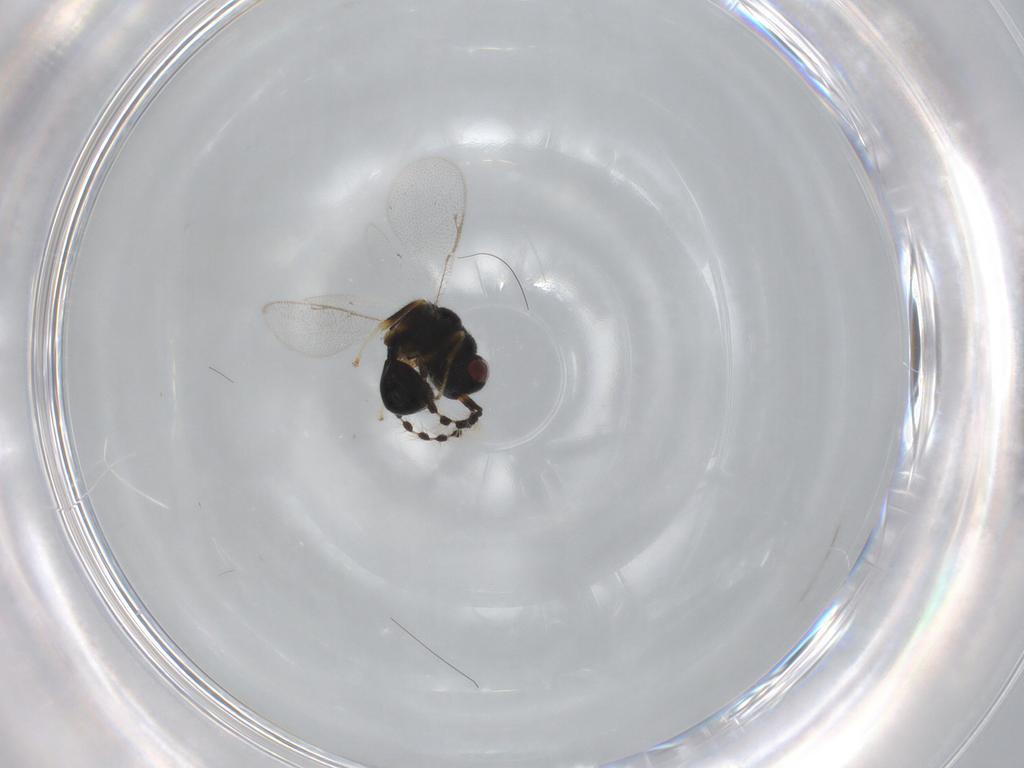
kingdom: Animalia
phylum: Arthropoda
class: Insecta
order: Hymenoptera
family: Eurytomidae
